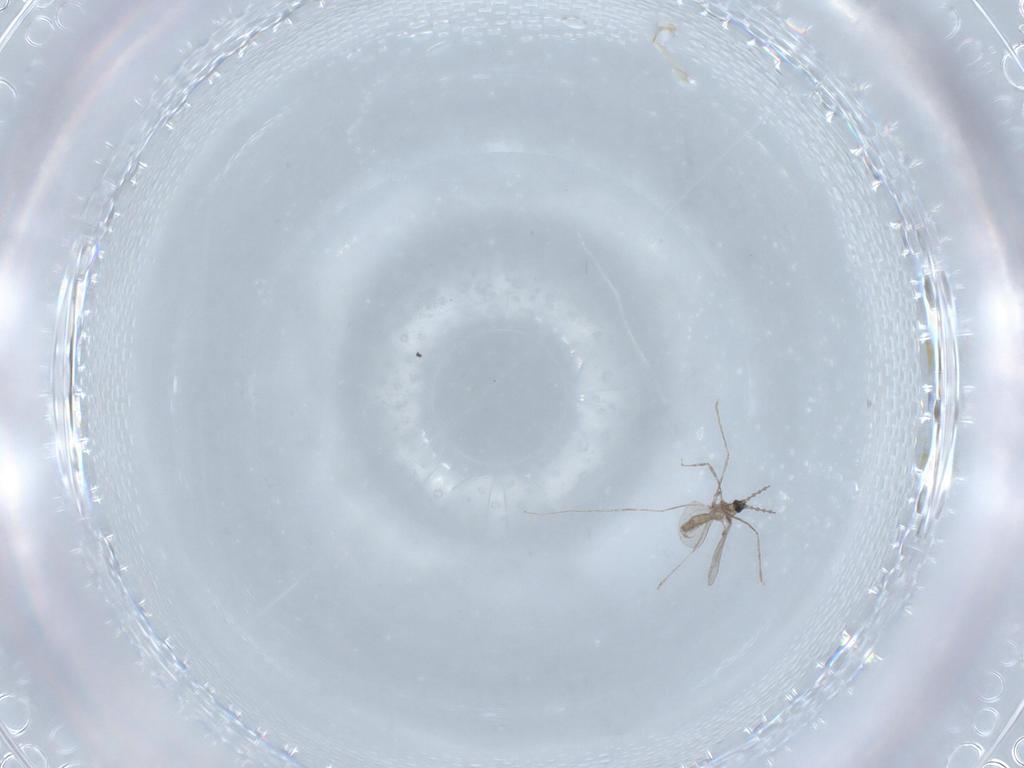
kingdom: Animalia
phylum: Arthropoda
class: Insecta
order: Diptera
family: Cecidomyiidae
